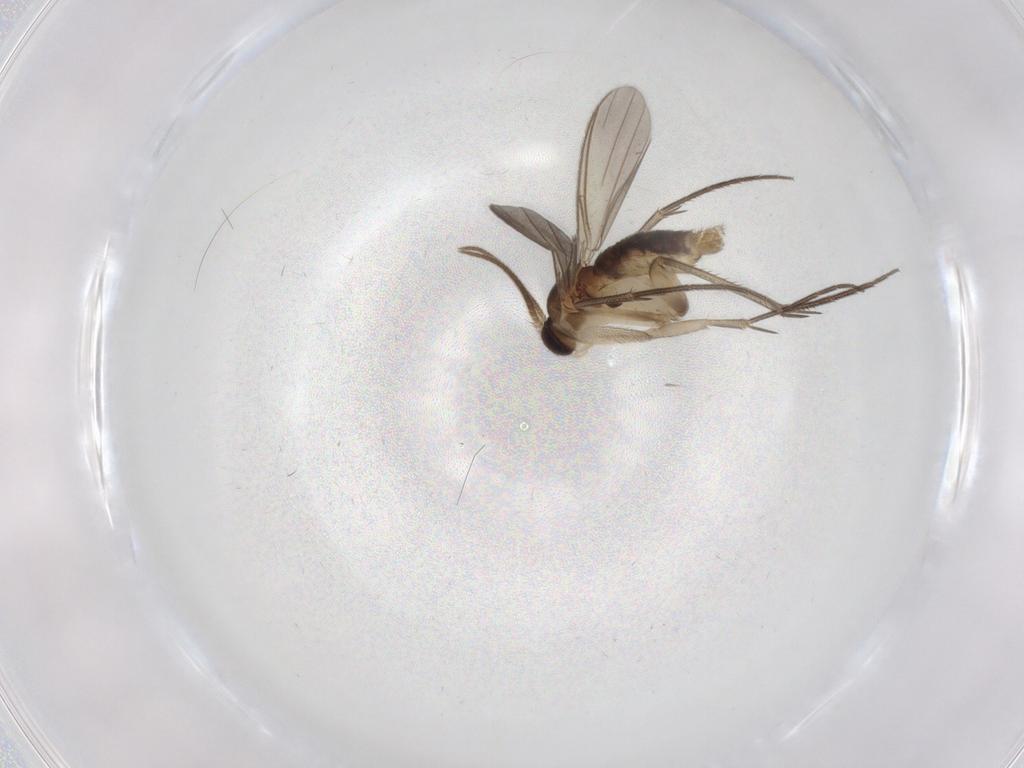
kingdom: Animalia
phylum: Arthropoda
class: Insecta
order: Diptera
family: Mycetophilidae
